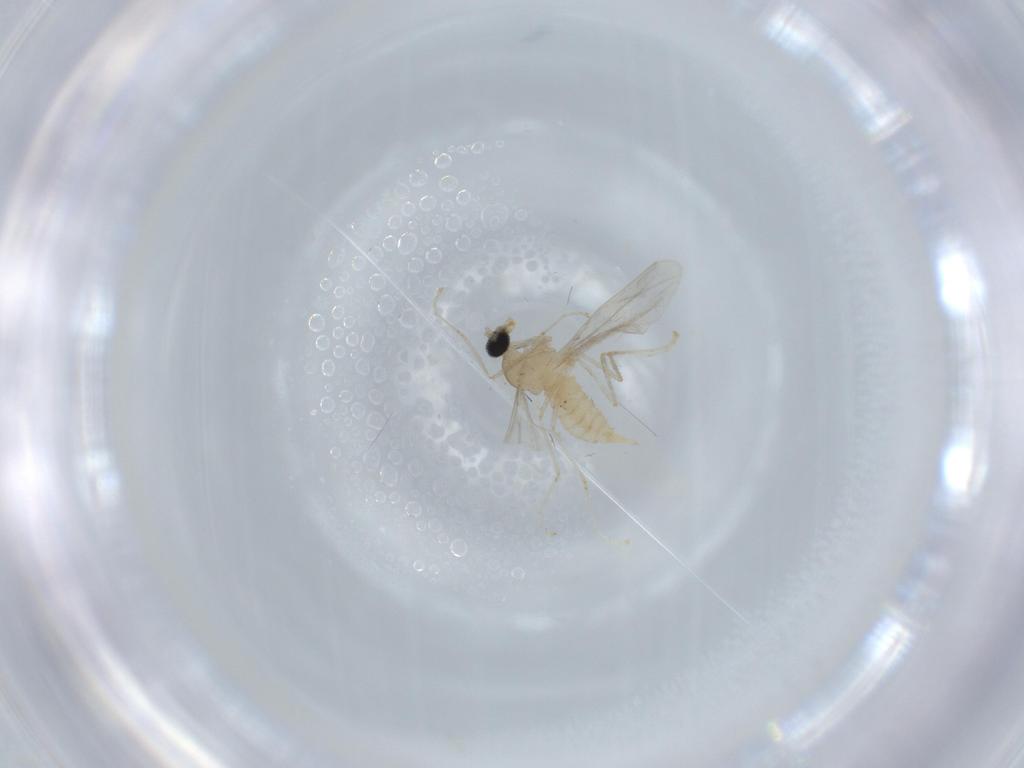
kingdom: Animalia
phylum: Arthropoda
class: Insecta
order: Diptera
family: Cecidomyiidae
